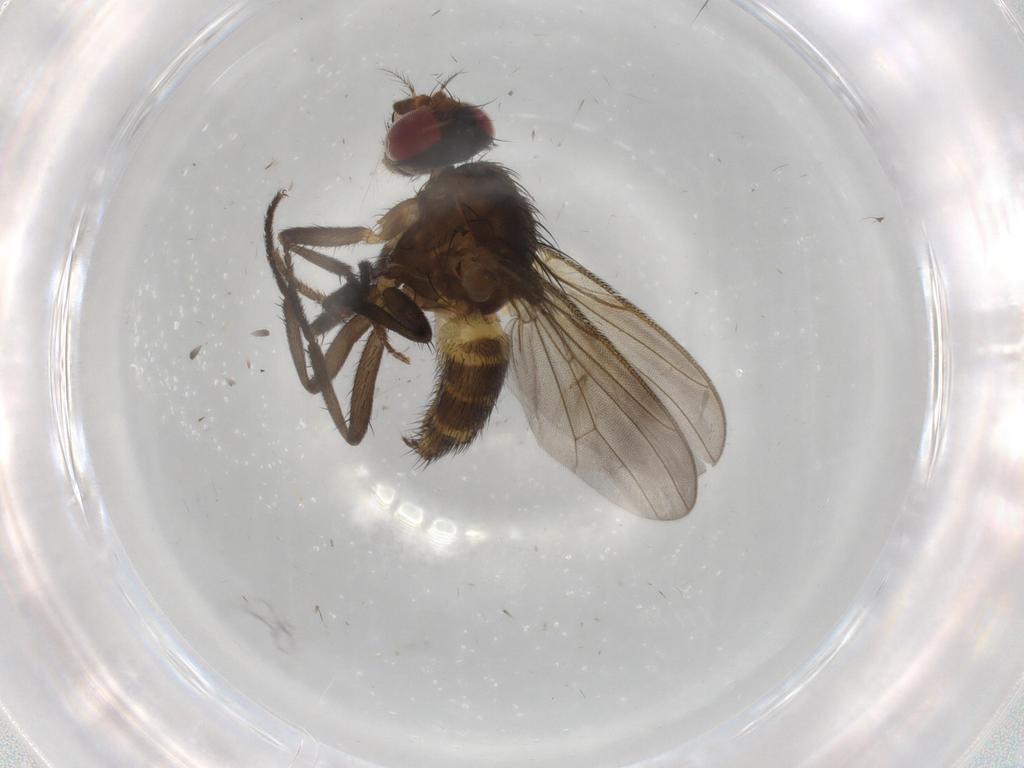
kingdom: Animalia
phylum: Arthropoda
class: Insecta
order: Diptera
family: Anthomyiidae
